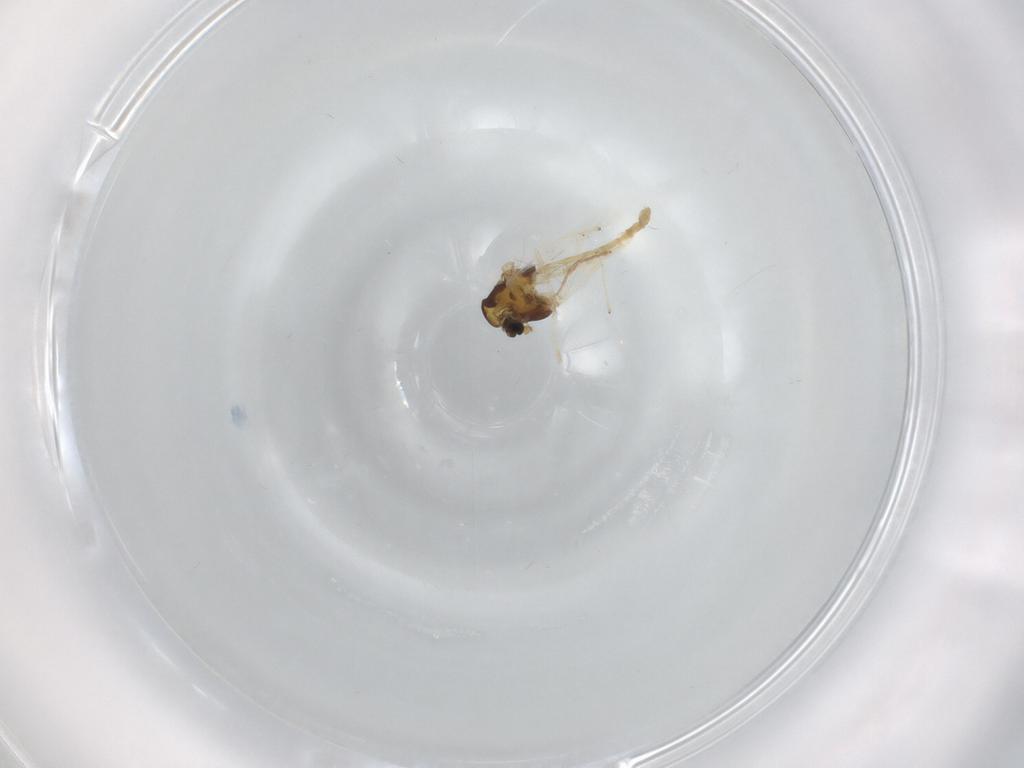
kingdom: Animalia
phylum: Arthropoda
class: Insecta
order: Diptera
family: Chironomidae
